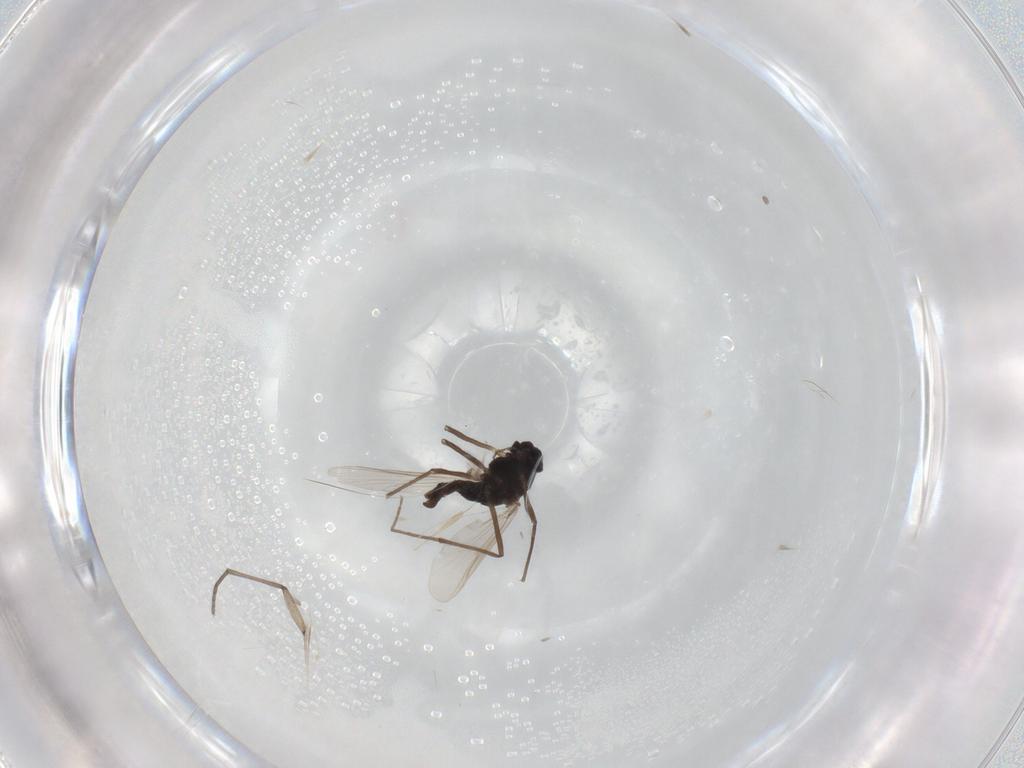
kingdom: Animalia
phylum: Arthropoda
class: Insecta
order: Diptera
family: Chironomidae
